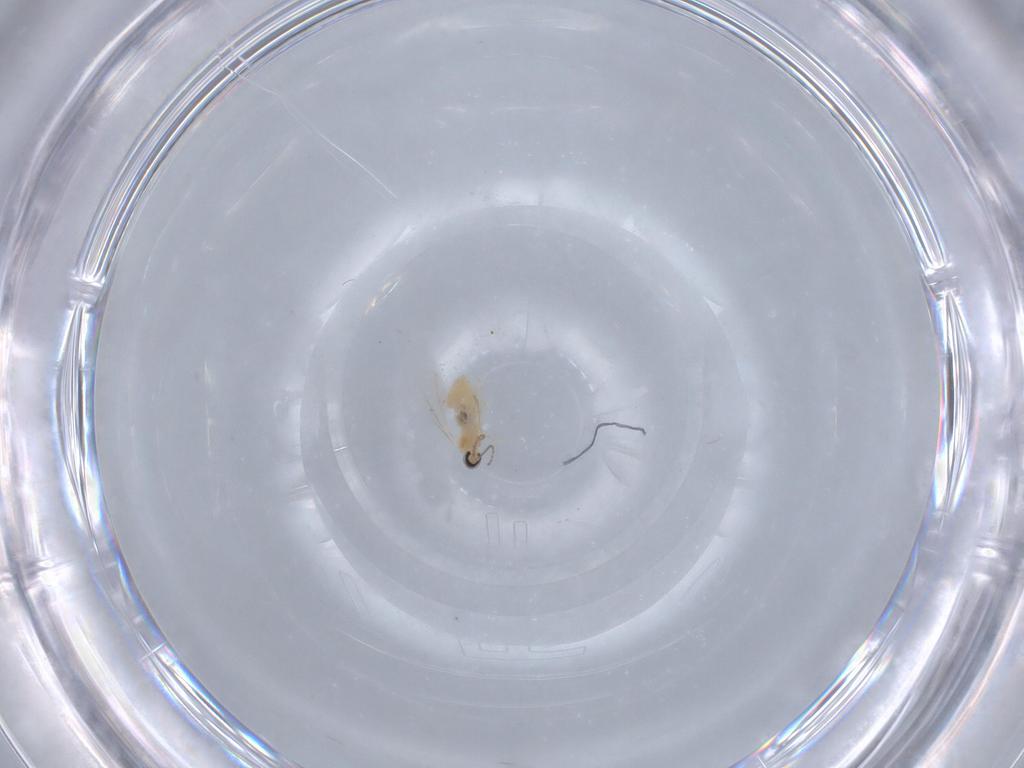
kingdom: Animalia
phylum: Arthropoda
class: Insecta
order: Diptera
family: Cecidomyiidae
